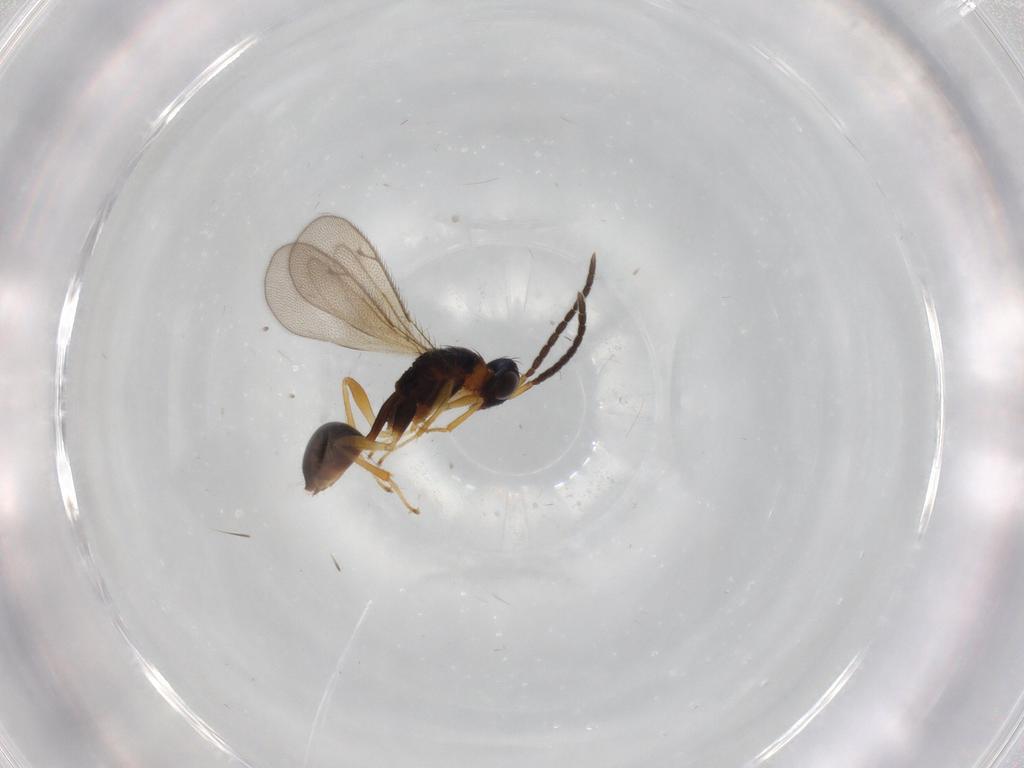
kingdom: Animalia
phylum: Arthropoda
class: Insecta
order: Hymenoptera
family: Diparidae
